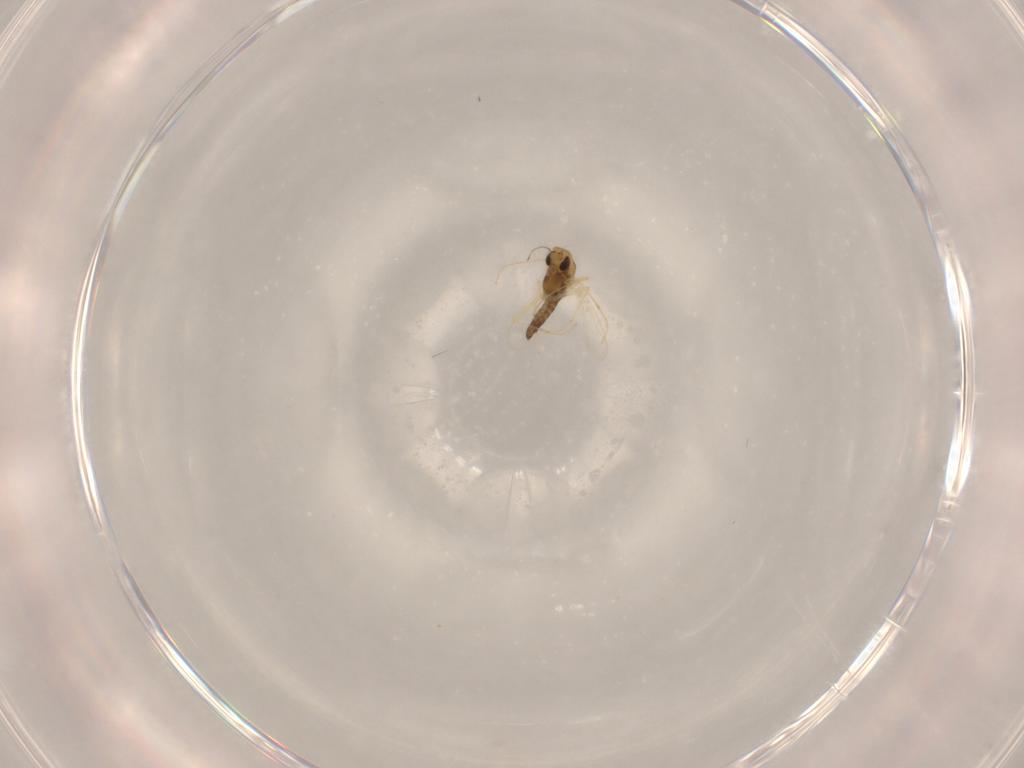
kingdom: Animalia
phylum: Arthropoda
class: Insecta
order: Diptera
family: Chironomidae
